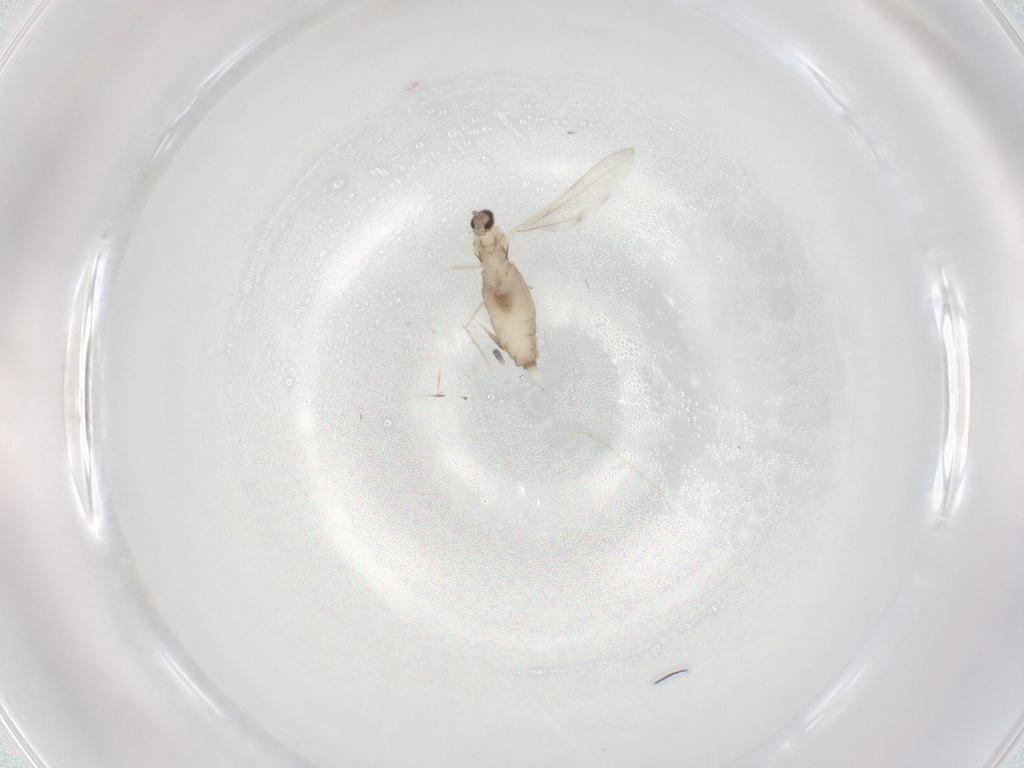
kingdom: Animalia
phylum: Arthropoda
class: Insecta
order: Diptera
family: Cecidomyiidae
